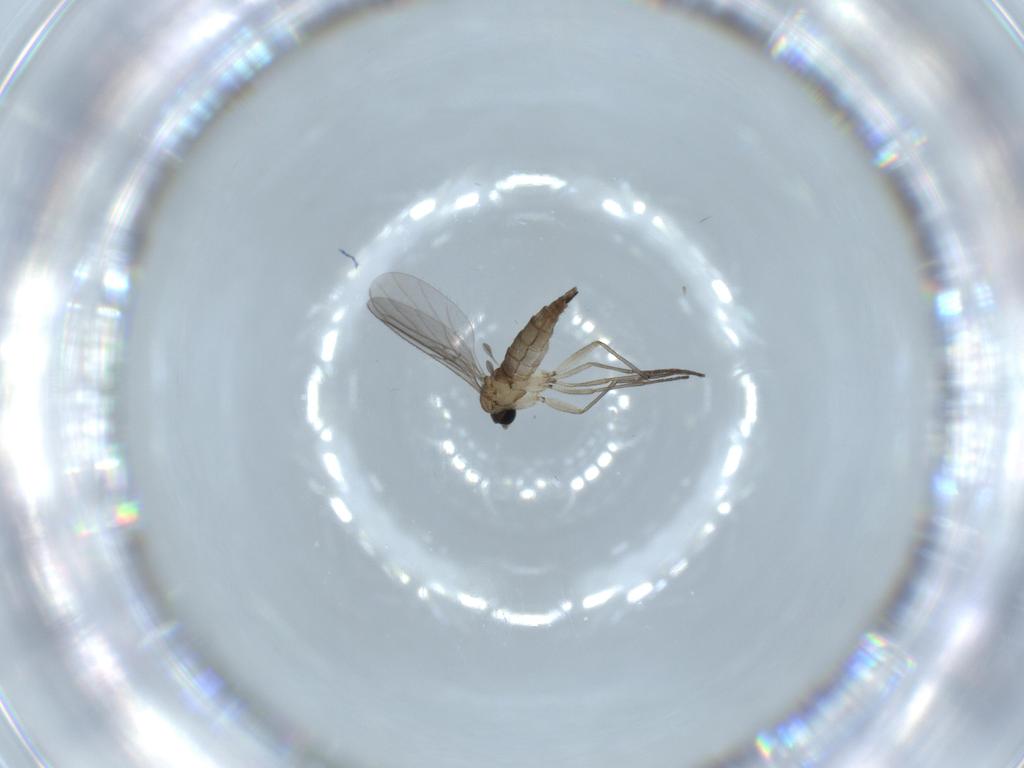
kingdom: Animalia
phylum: Arthropoda
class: Insecta
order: Diptera
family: Sciaridae
